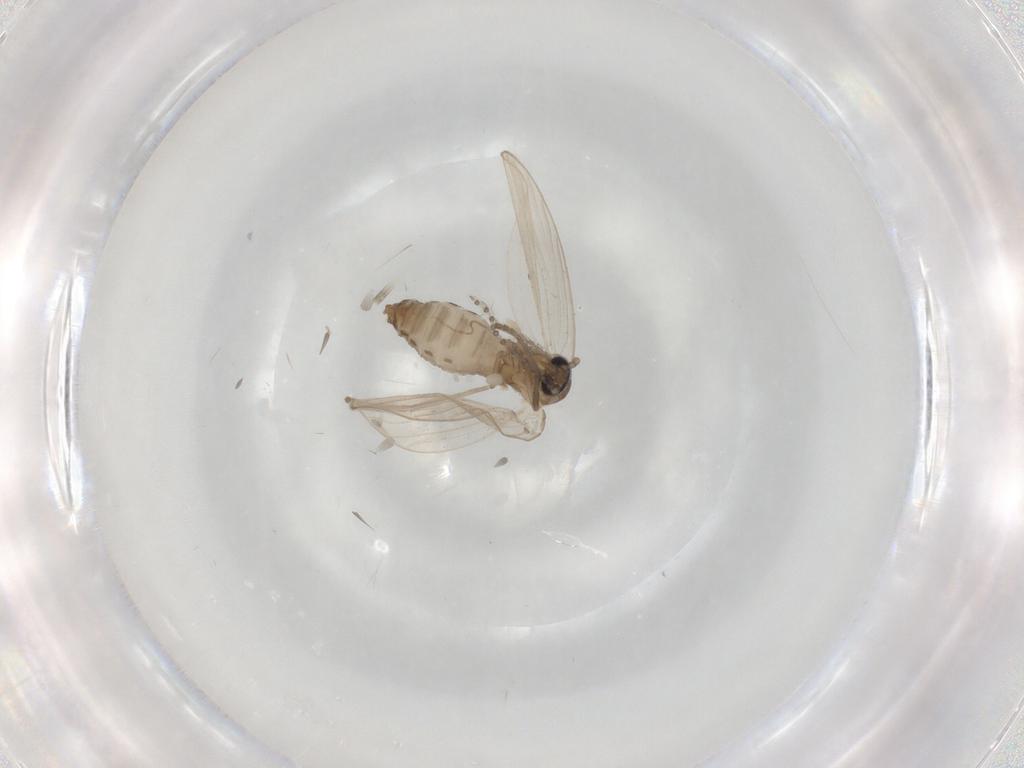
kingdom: Animalia
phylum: Arthropoda
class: Insecta
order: Diptera
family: Psychodidae
